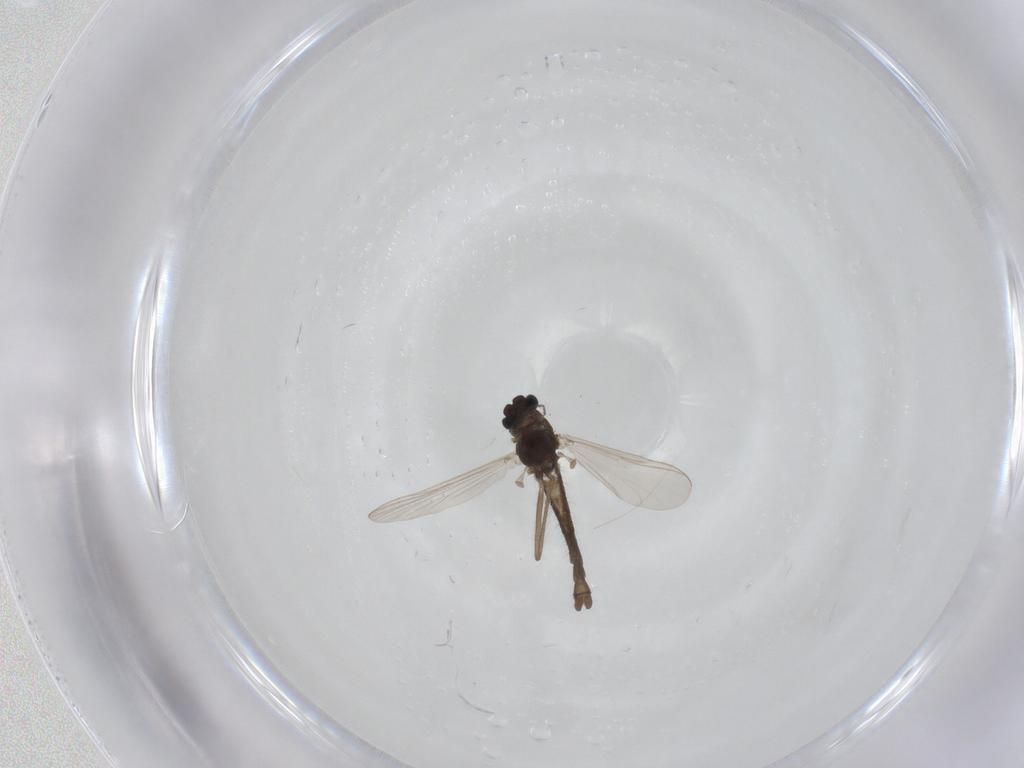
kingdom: Animalia
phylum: Arthropoda
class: Insecta
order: Diptera
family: Chironomidae
